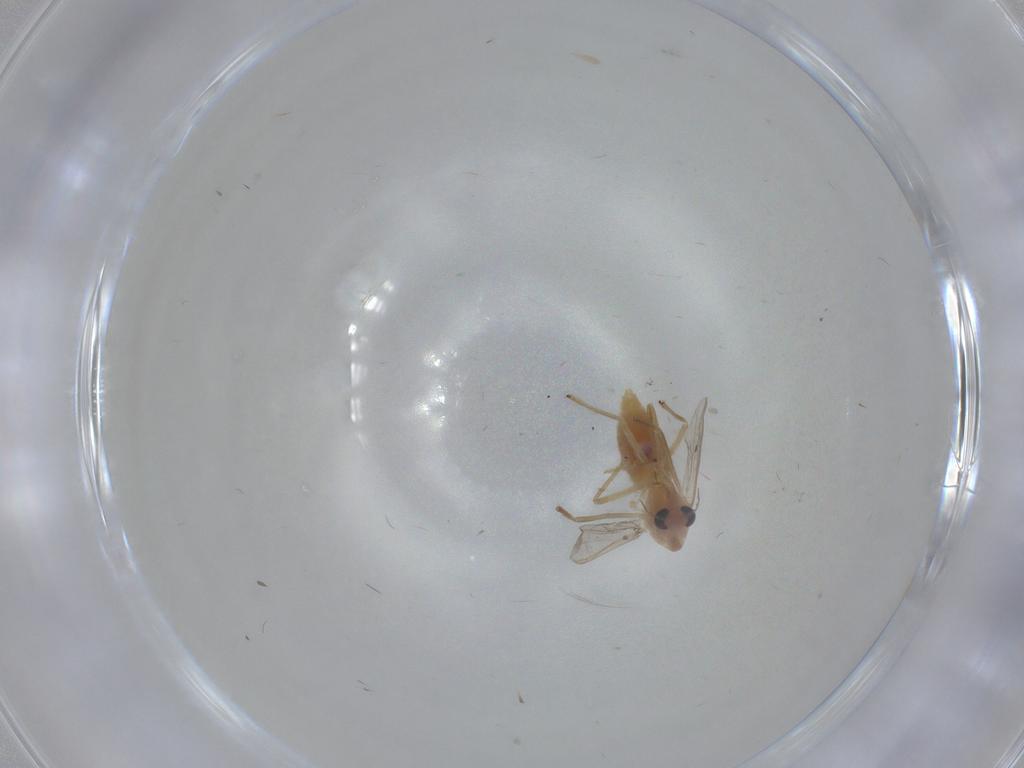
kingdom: Animalia
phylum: Arthropoda
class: Insecta
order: Diptera
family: Chironomidae
